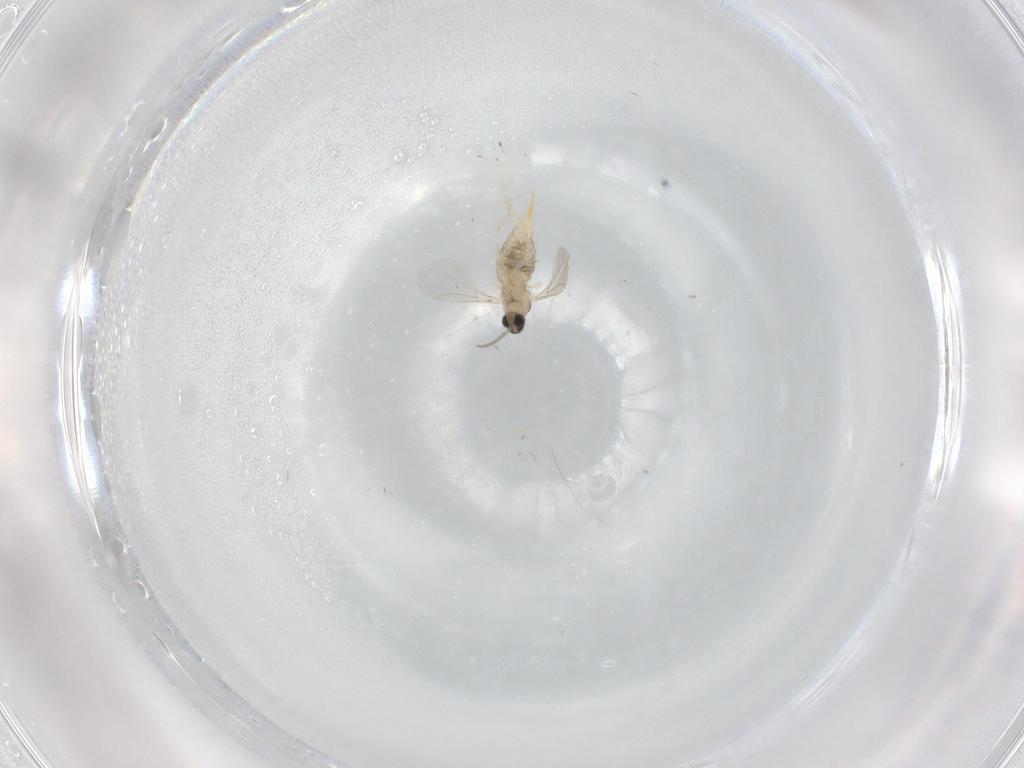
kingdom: Animalia
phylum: Arthropoda
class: Insecta
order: Diptera
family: Cecidomyiidae
